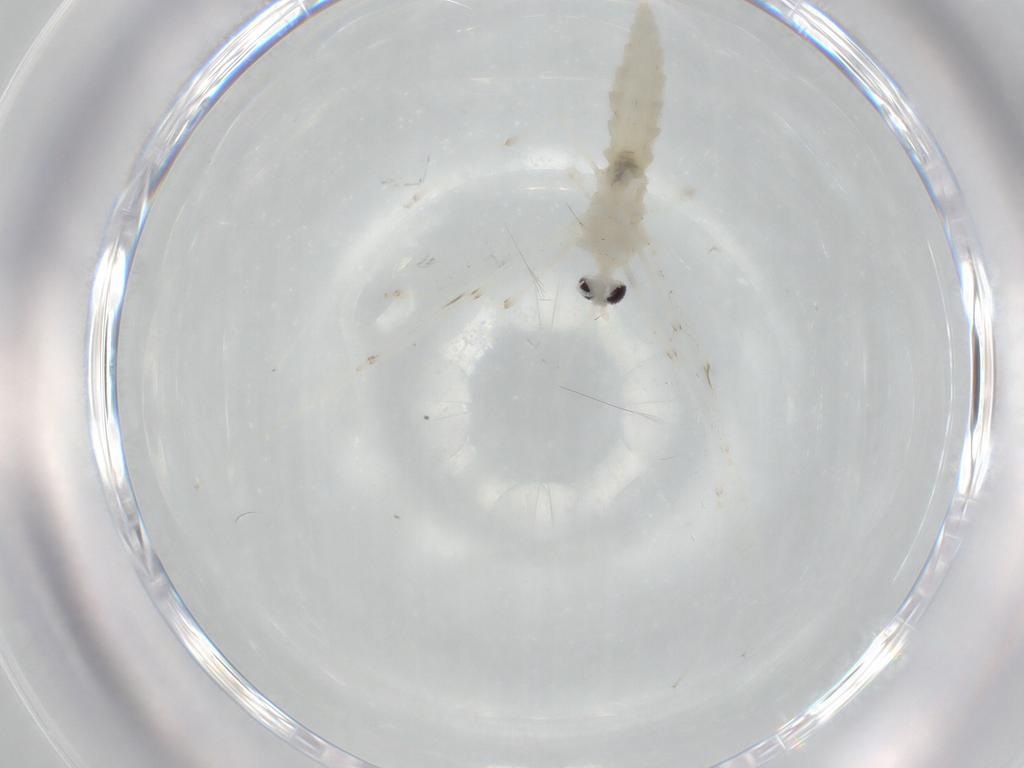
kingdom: Animalia
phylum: Arthropoda
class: Insecta
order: Diptera
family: Cecidomyiidae
